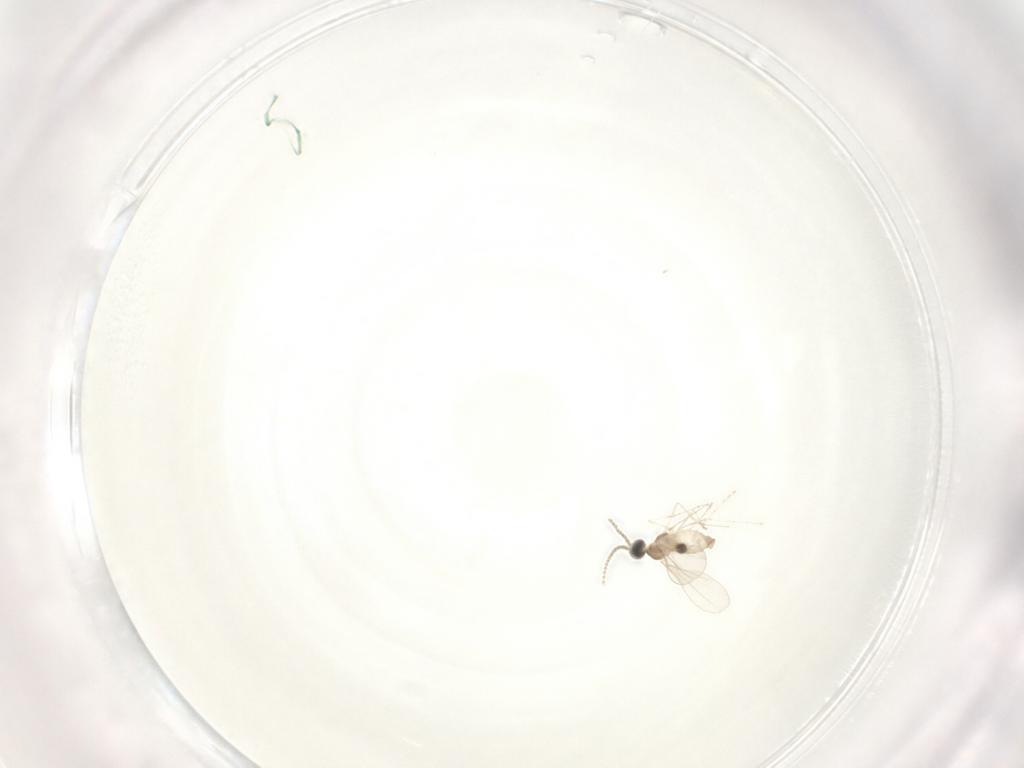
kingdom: Animalia
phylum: Arthropoda
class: Insecta
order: Diptera
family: Cecidomyiidae
